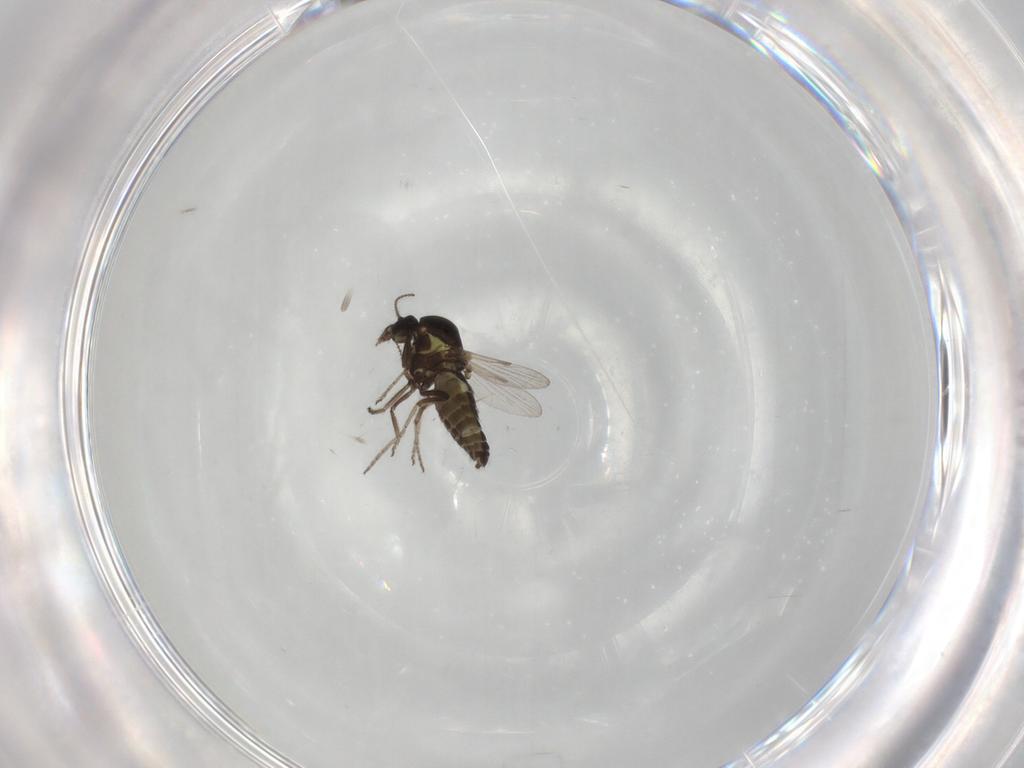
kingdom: Animalia
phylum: Arthropoda
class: Insecta
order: Diptera
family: Ceratopogonidae
